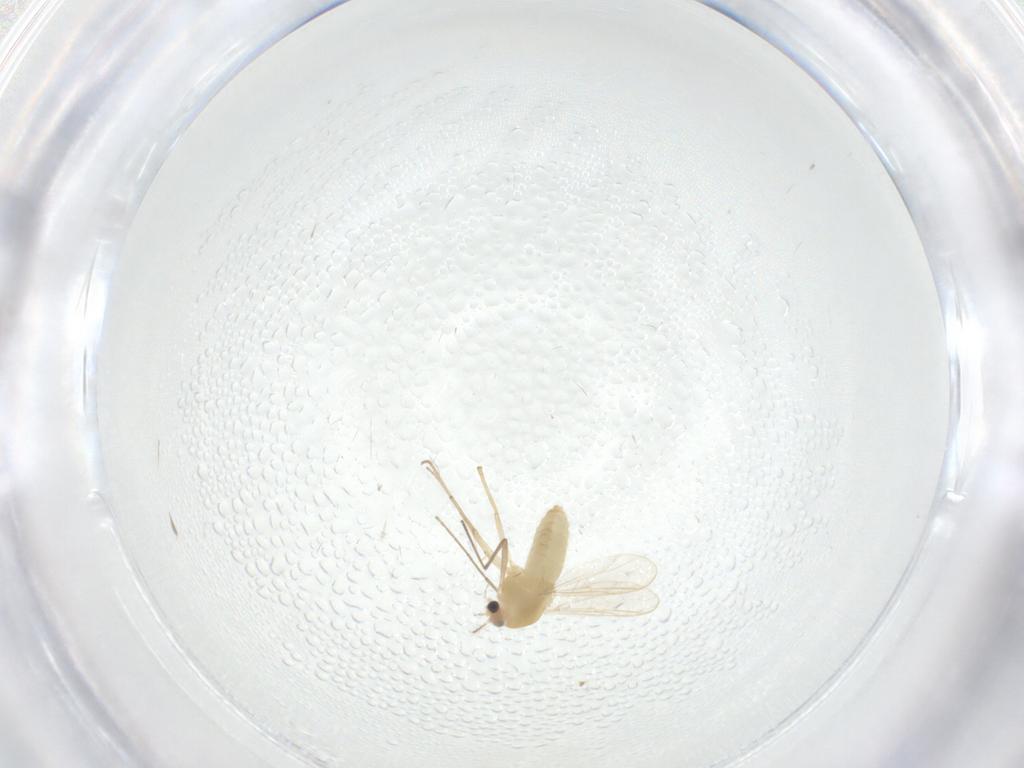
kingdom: Animalia
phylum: Arthropoda
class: Insecta
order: Diptera
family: Chironomidae
